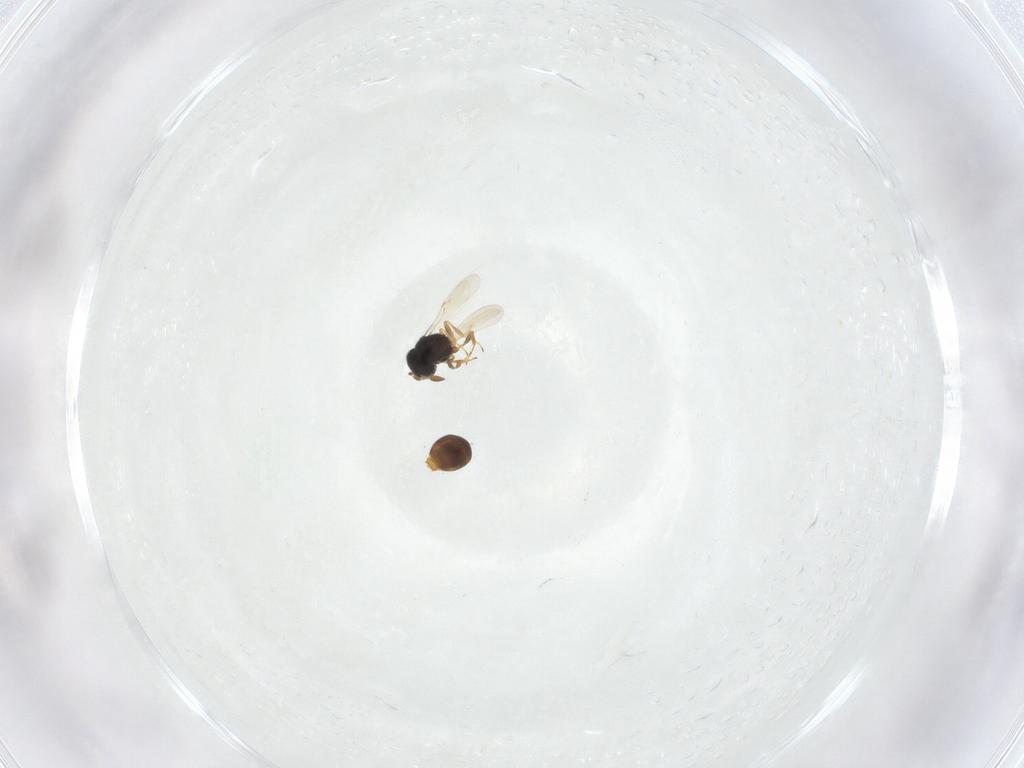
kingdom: Animalia
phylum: Arthropoda
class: Insecta
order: Hymenoptera
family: Scelionidae
